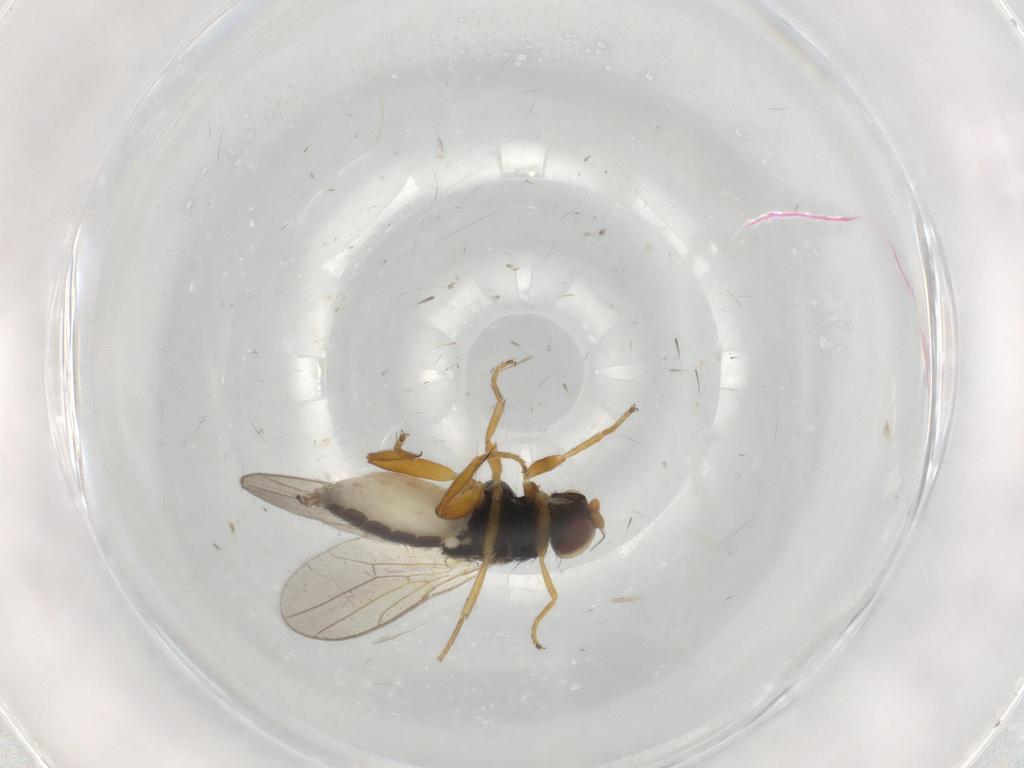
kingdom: Animalia
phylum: Arthropoda
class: Insecta
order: Diptera
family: Chloropidae
